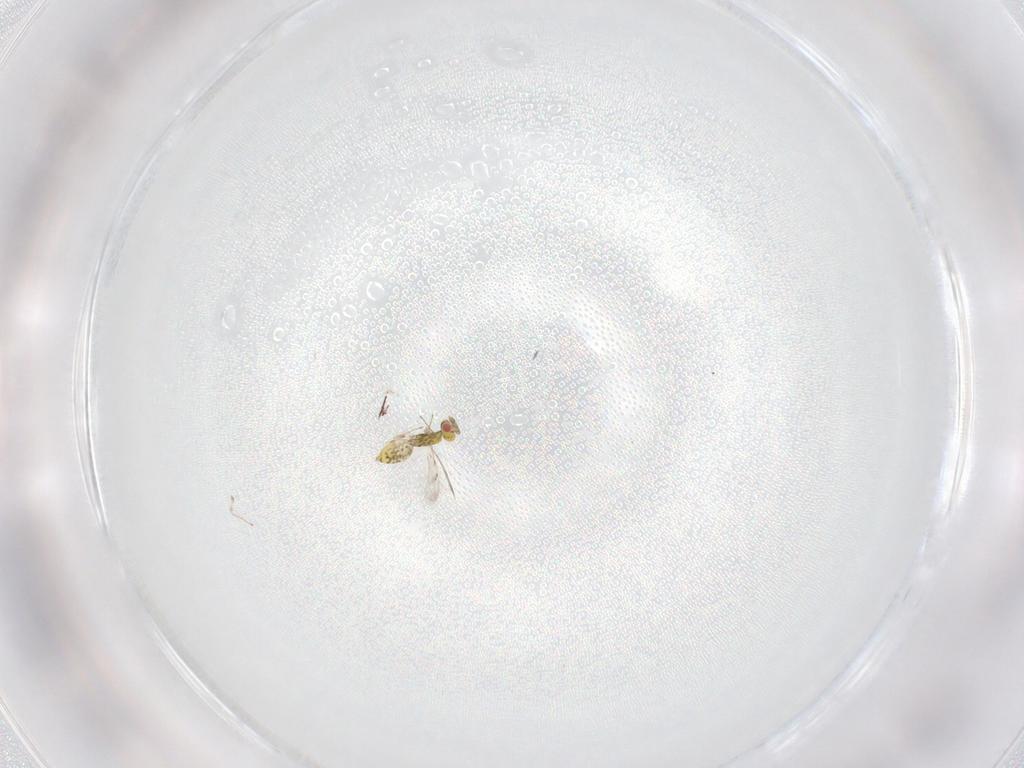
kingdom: Animalia
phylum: Arthropoda
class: Insecta
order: Hymenoptera
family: Eulophidae
